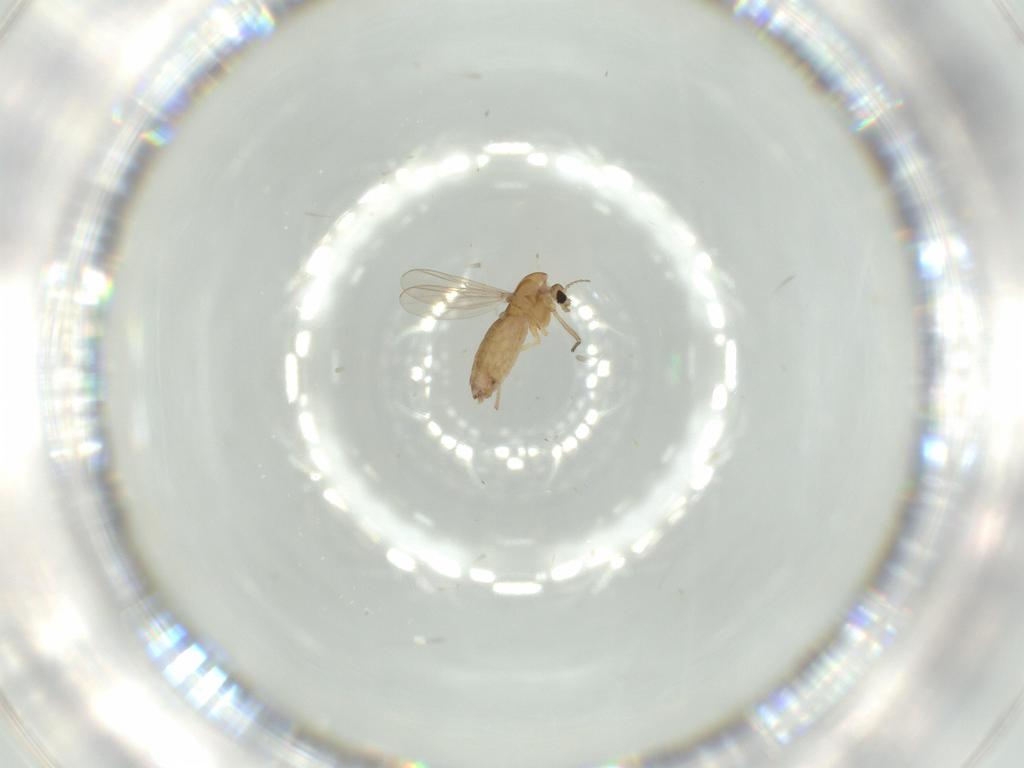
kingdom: Animalia
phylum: Arthropoda
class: Insecta
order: Diptera
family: Chironomidae
